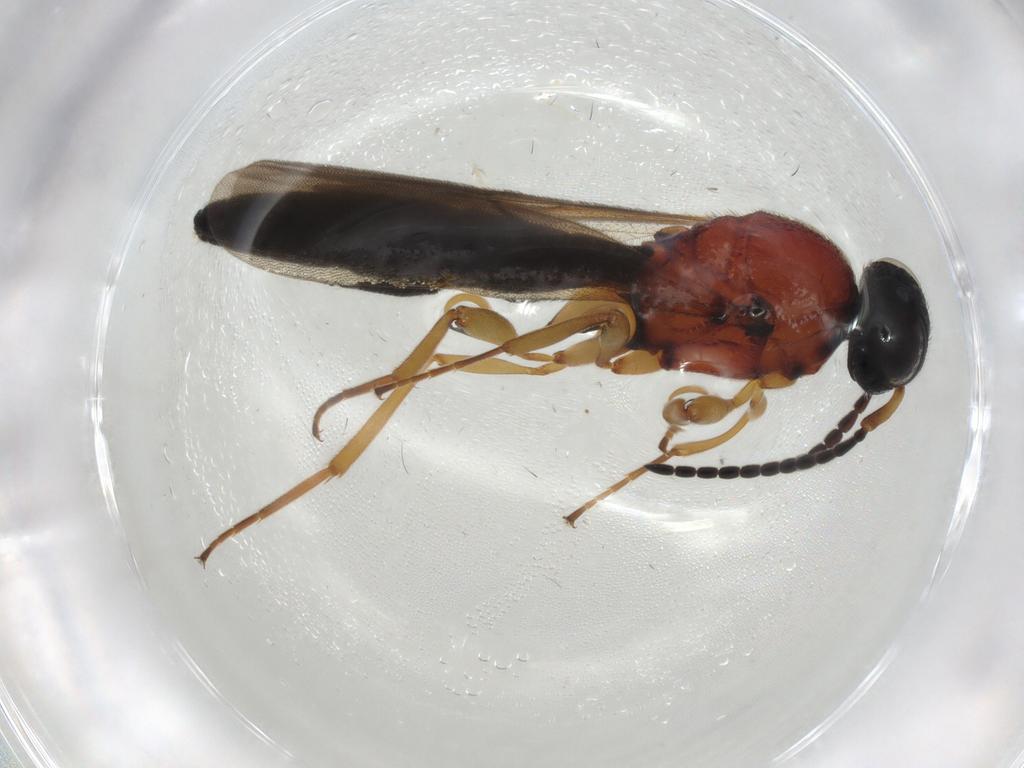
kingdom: Animalia
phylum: Arthropoda
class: Insecta
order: Hymenoptera
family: Scelionidae
